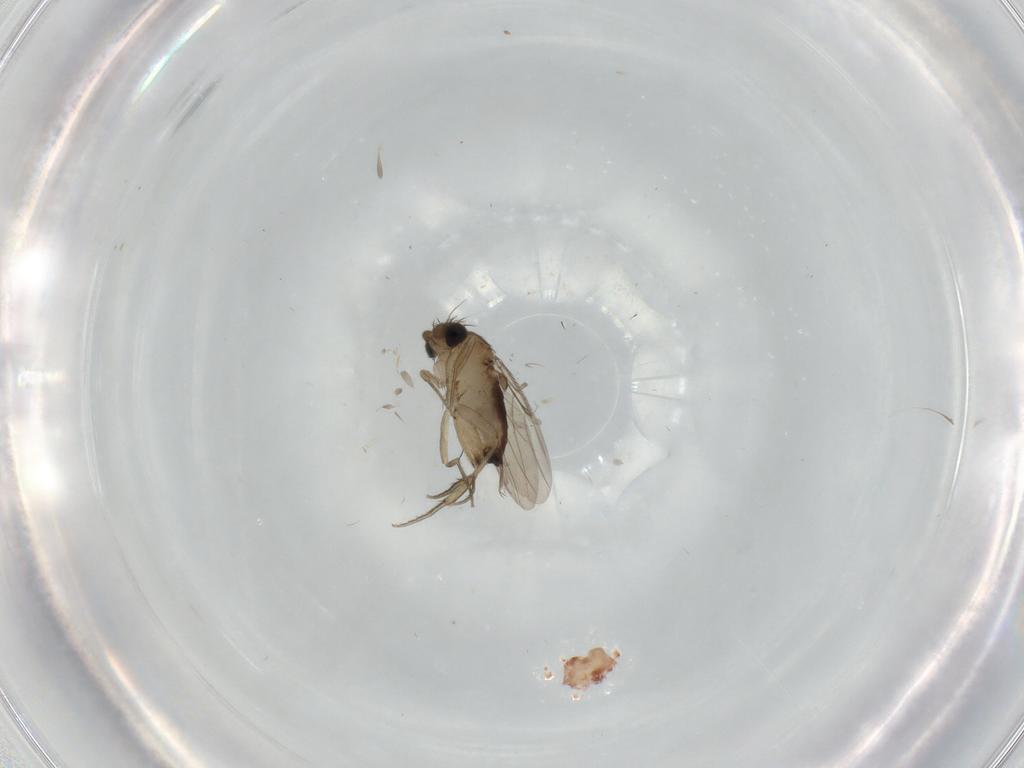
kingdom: Animalia
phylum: Arthropoda
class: Insecta
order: Diptera
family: Phoridae
